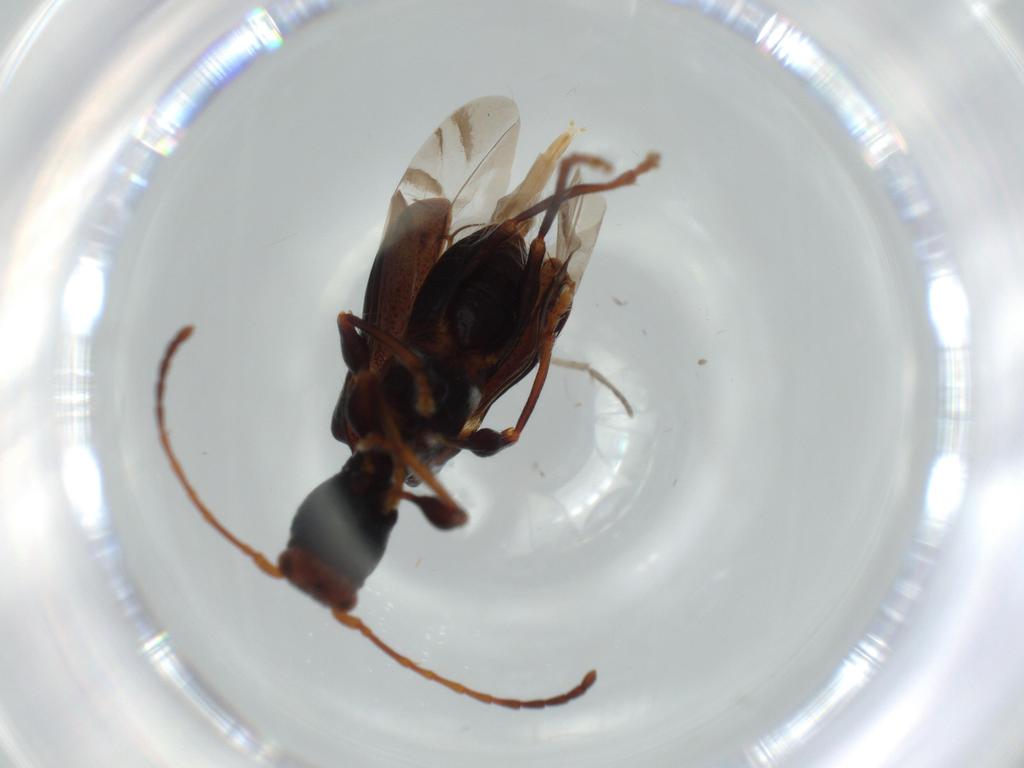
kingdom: Animalia
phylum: Arthropoda
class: Insecta
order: Coleoptera
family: Cerambycidae
